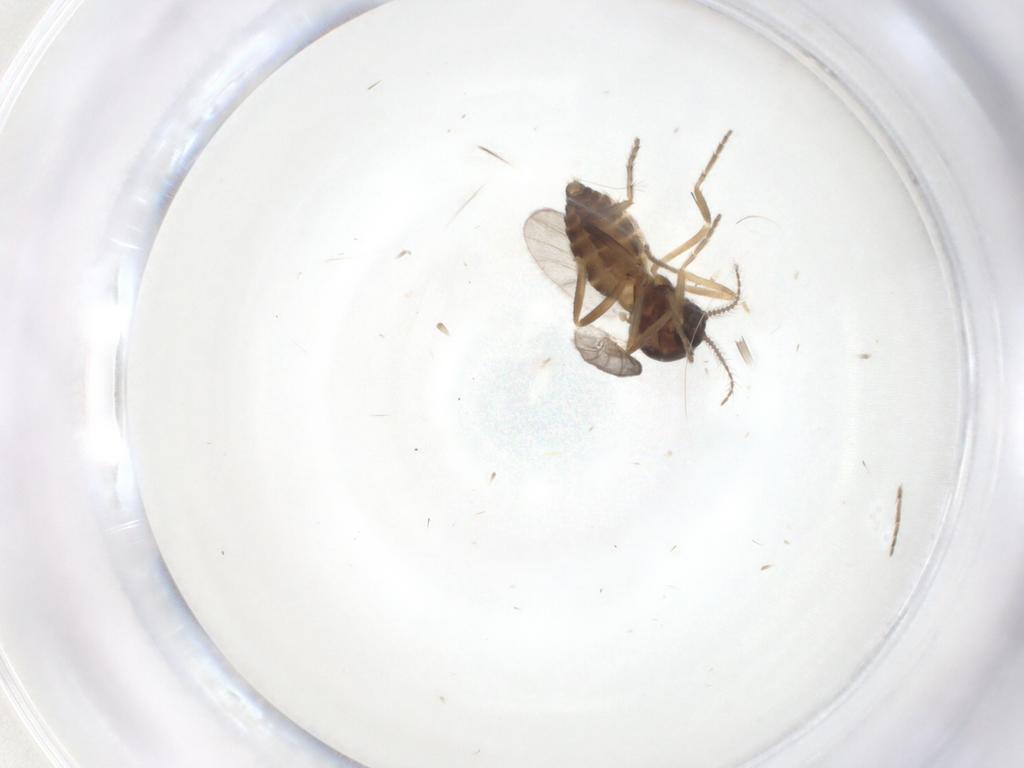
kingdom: Animalia
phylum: Arthropoda
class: Insecta
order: Diptera
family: Ceratopogonidae
